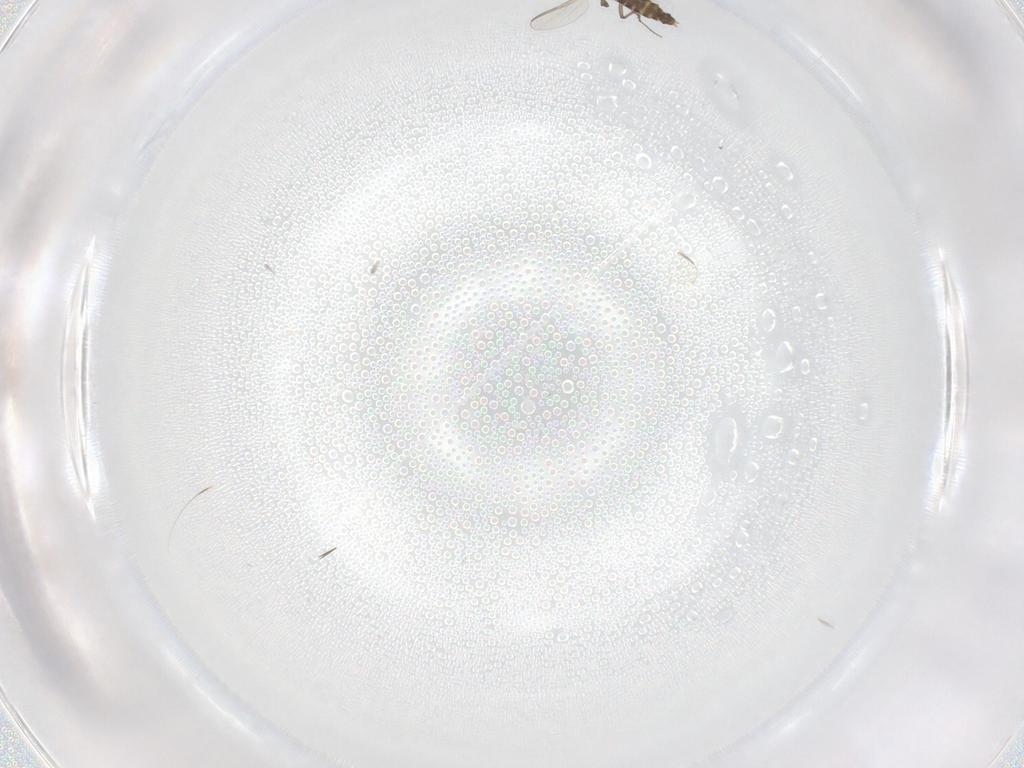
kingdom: Animalia
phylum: Arthropoda
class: Insecta
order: Diptera
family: Chironomidae
